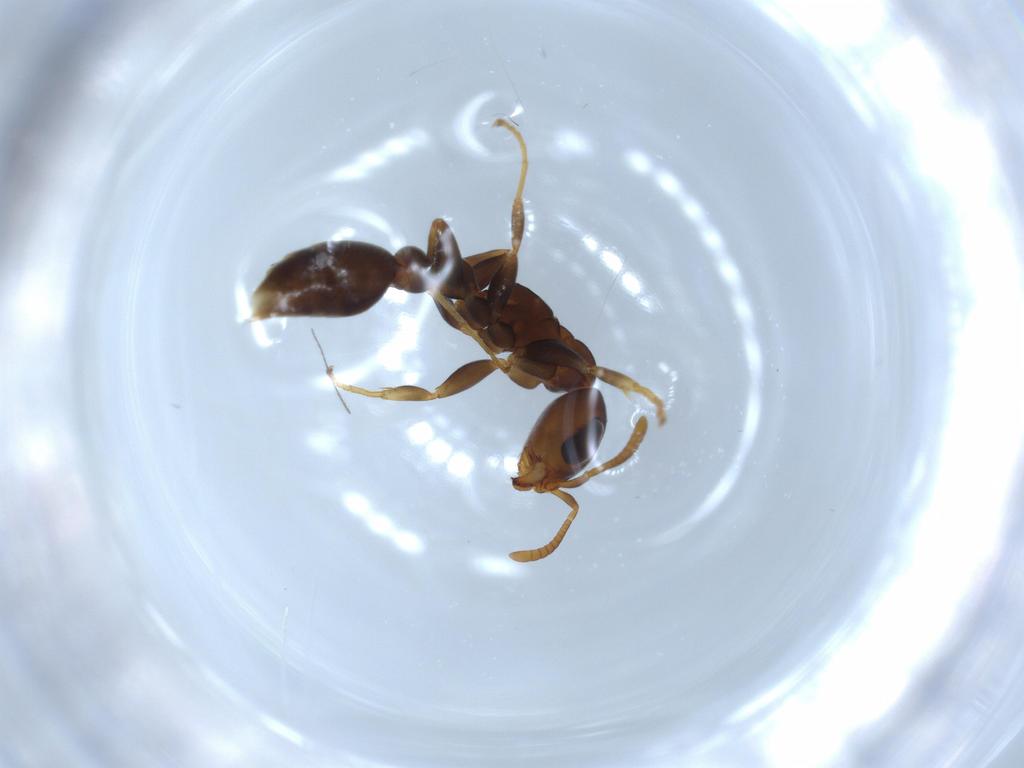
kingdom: Animalia
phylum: Arthropoda
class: Insecta
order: Hymenoptera
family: Formicidae
